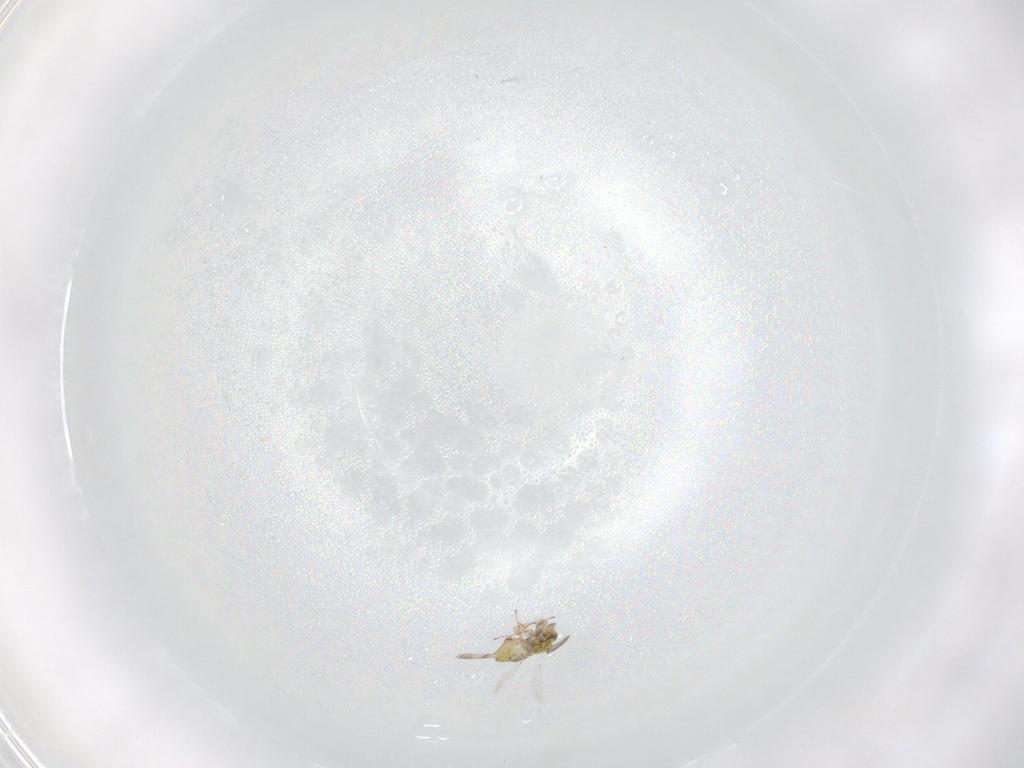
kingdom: Animalia
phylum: Arthropoda
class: Insecta
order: Hymenoptera
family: Eulophidae
